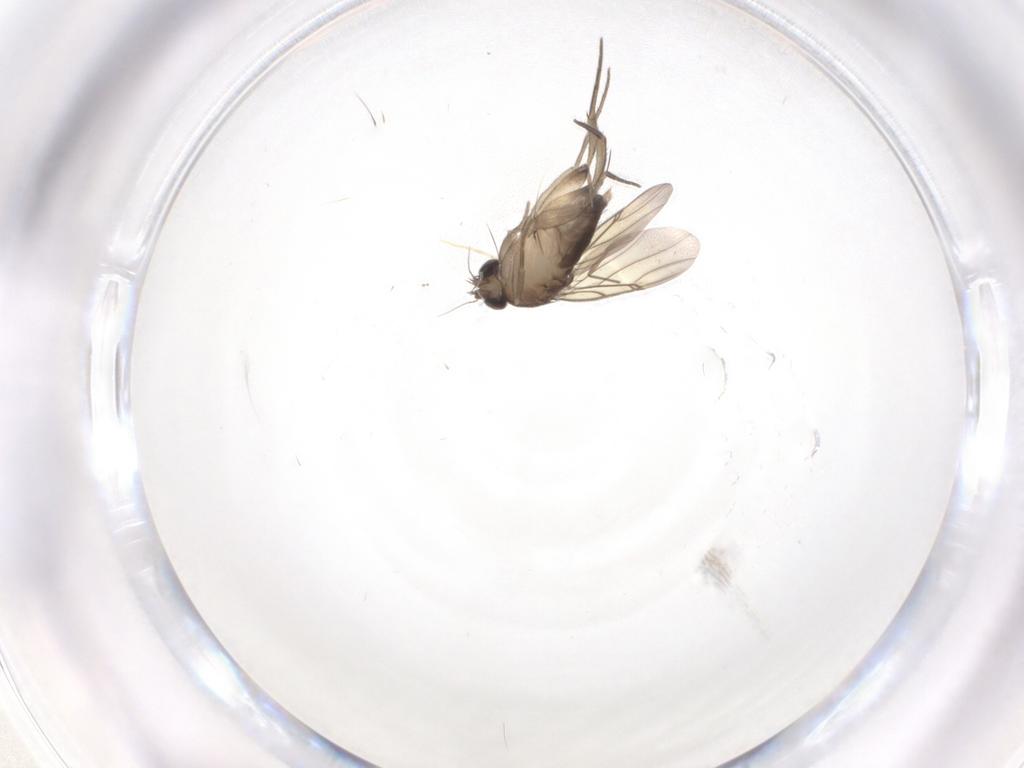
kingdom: Animalia
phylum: Arthropoda
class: Insecta
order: Diptera
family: Phoridae
